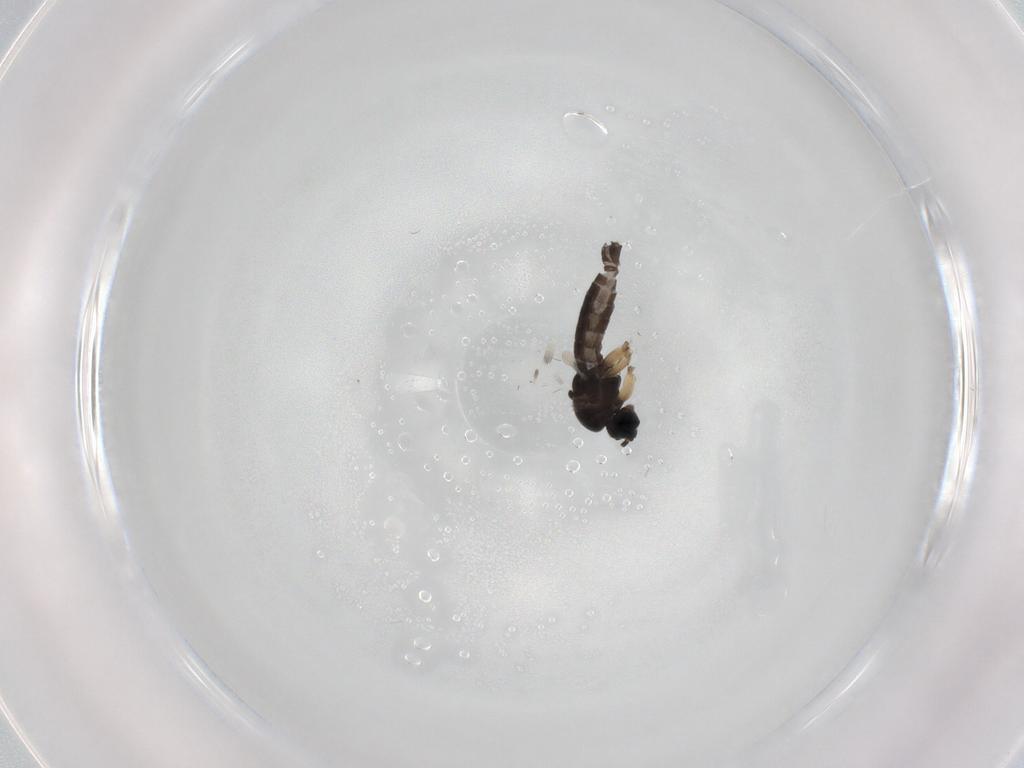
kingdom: Animalia
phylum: Arthropoda
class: Insecta
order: Diptera
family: Sciaridae
